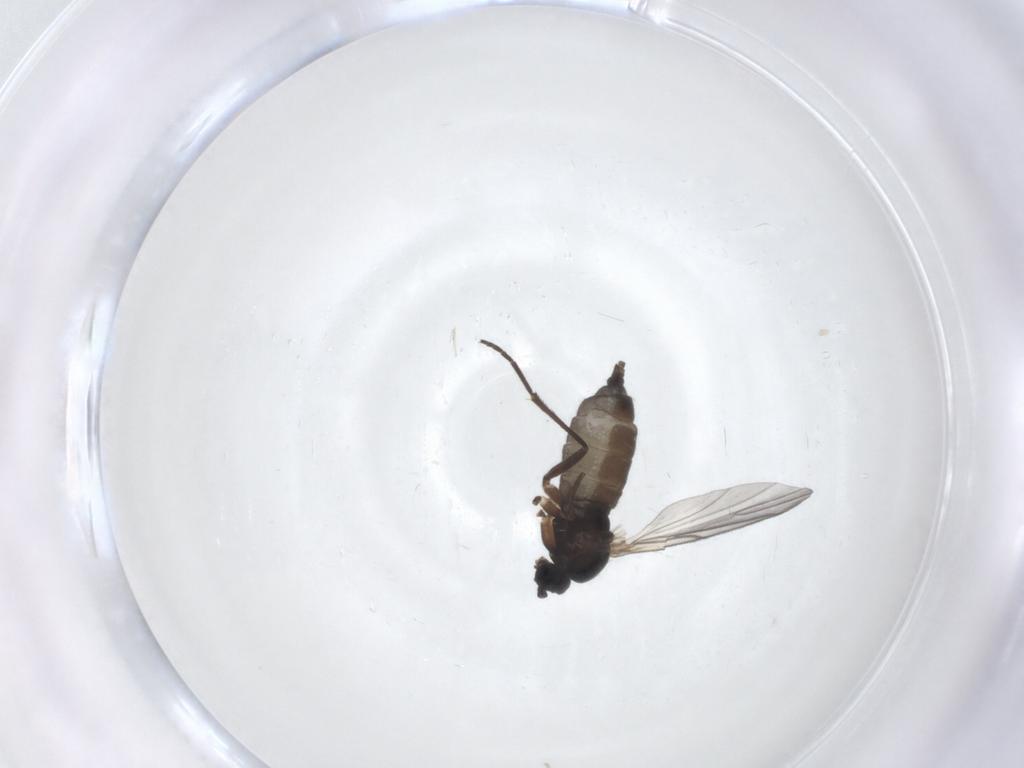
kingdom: Animalia
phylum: Arthropoda
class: Insecta
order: Diptera
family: Sciaridae
